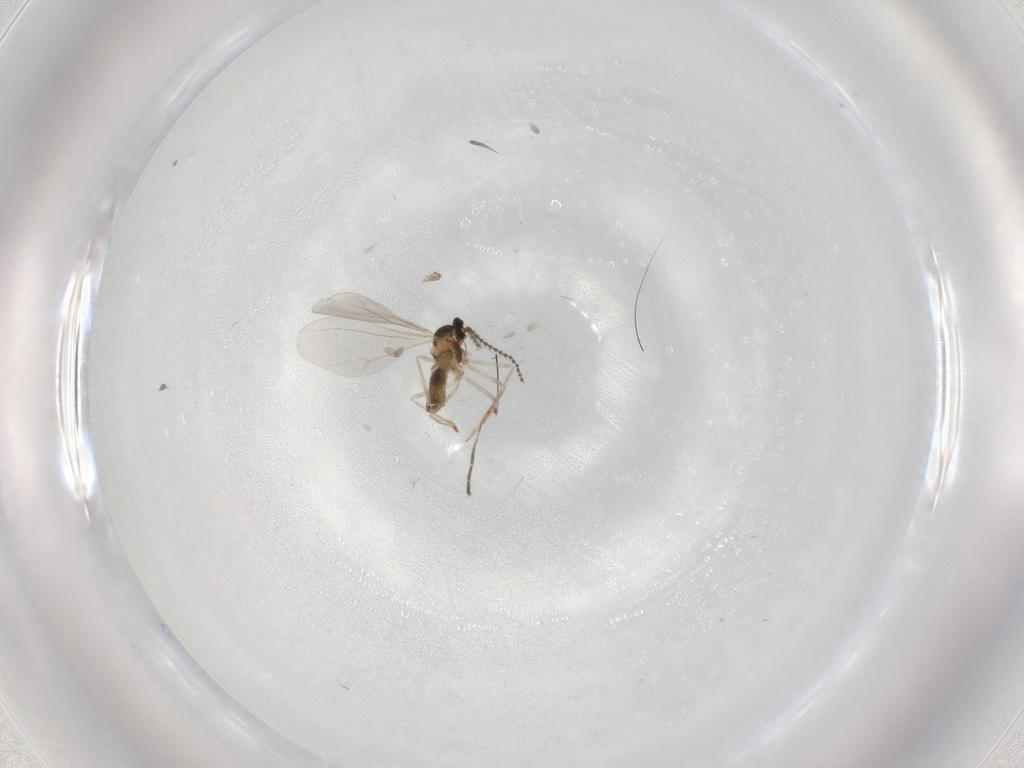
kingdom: Animalia
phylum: Arthropoda
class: Insecta
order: Diptera
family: Cecidomyiidae
